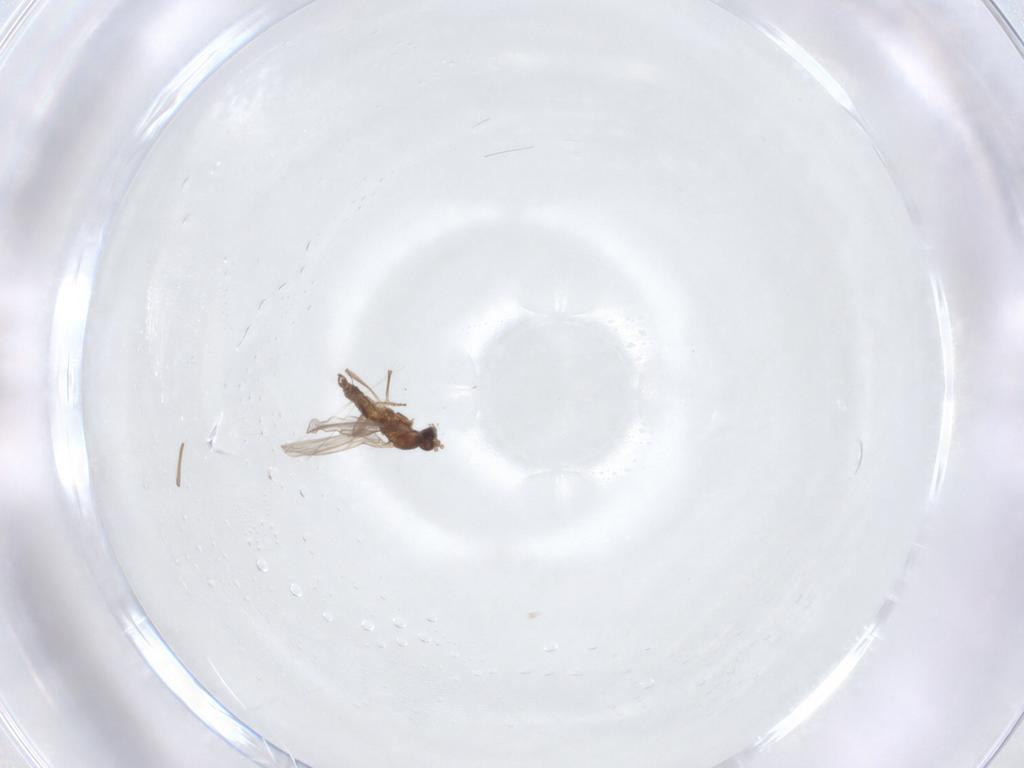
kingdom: Animalia
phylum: Arthropoda
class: Insecta
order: Diptera
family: Cecidomyiidae
